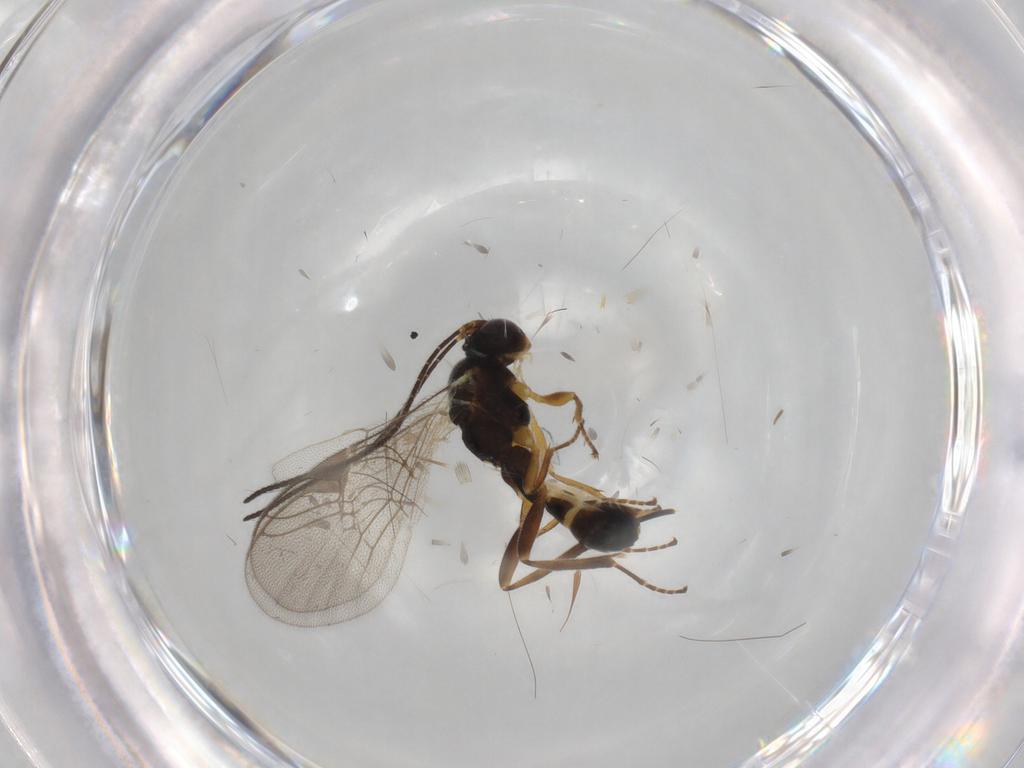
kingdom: Animalia
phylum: Arthropoda
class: Insecta
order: Hymenoptera
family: Ichneumonidae
